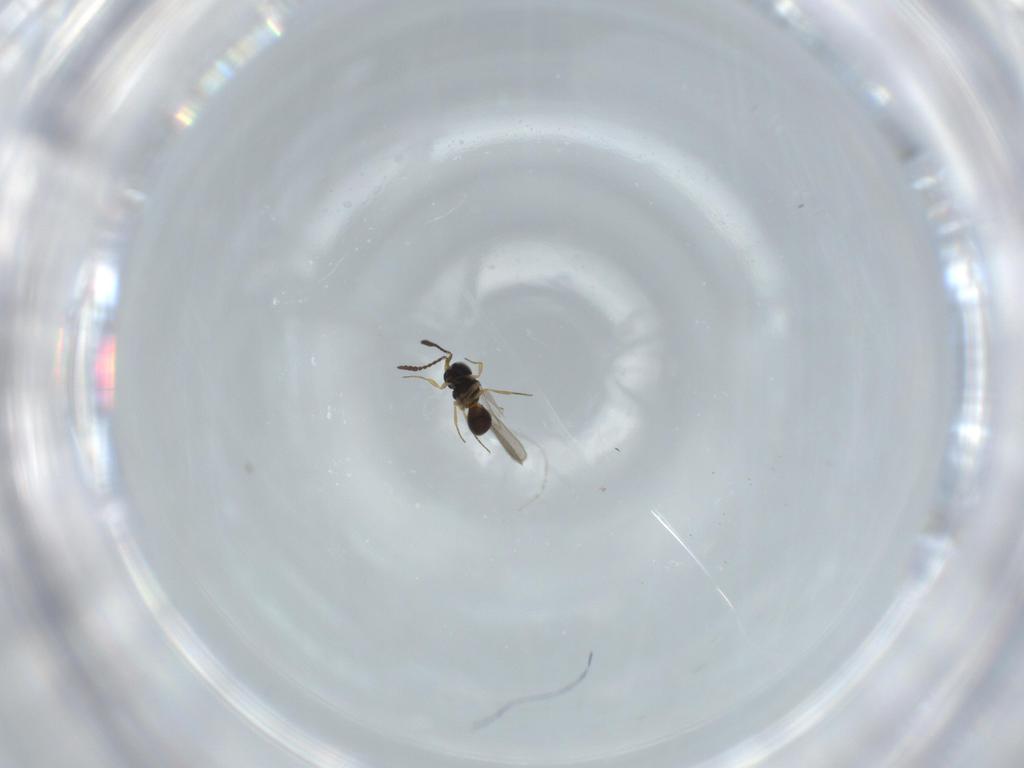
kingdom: Animalia
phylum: Arthropoda
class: Insecta
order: Hymenoptera
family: Scelionidae
